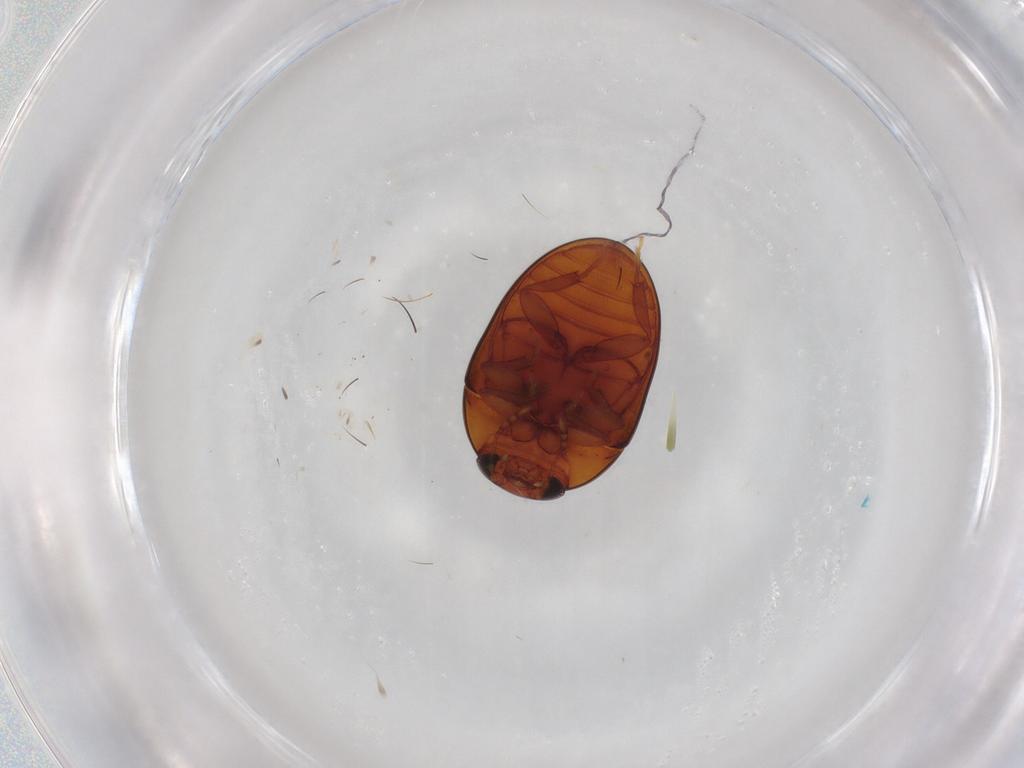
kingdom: Animalia
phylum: Arthropoda
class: Insecta
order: Coleoptera
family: Phalacridae
